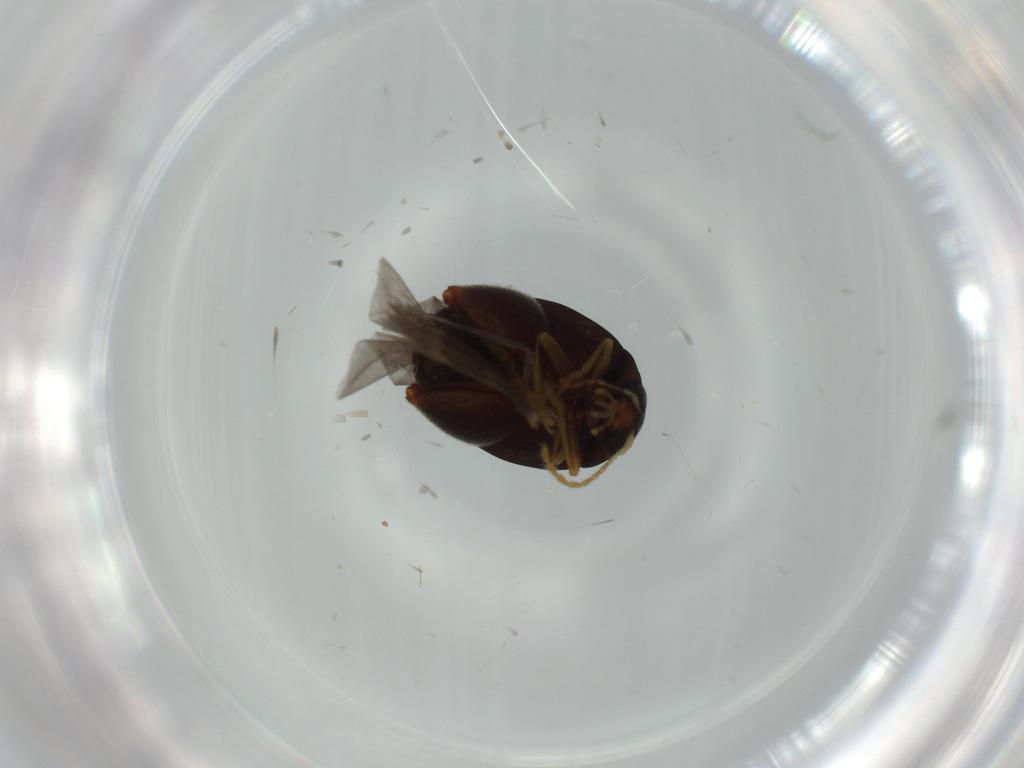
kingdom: Animalia
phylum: Arthropoda
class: Insecta
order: Coleoptera
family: Chrysomelidae
